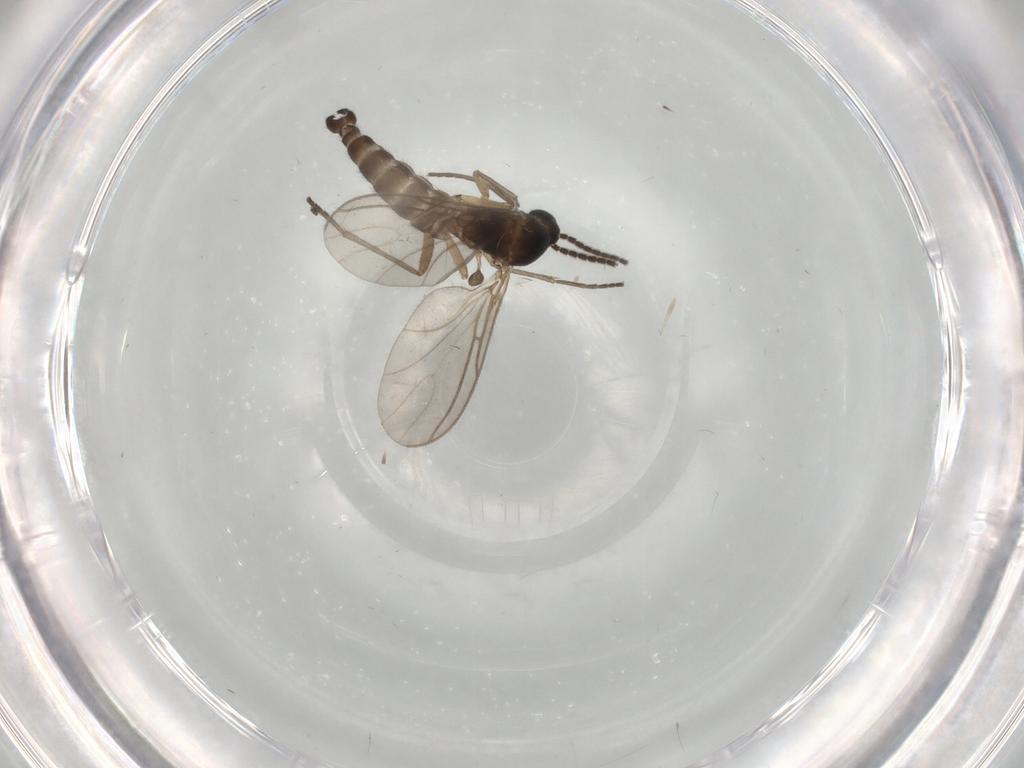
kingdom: Animalia
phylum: Arthropoda
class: Insecta
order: Diptera
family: Sciaridae
